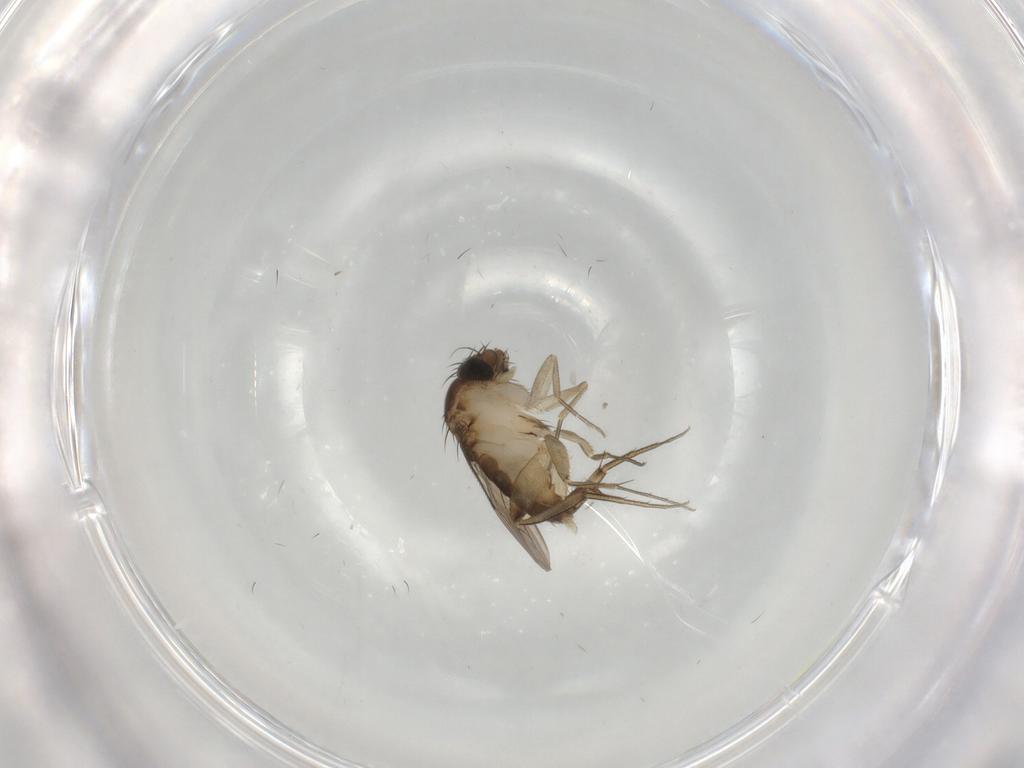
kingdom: Animalia
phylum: Arthropoda
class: Insecta
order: Diptera
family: Phoridae
